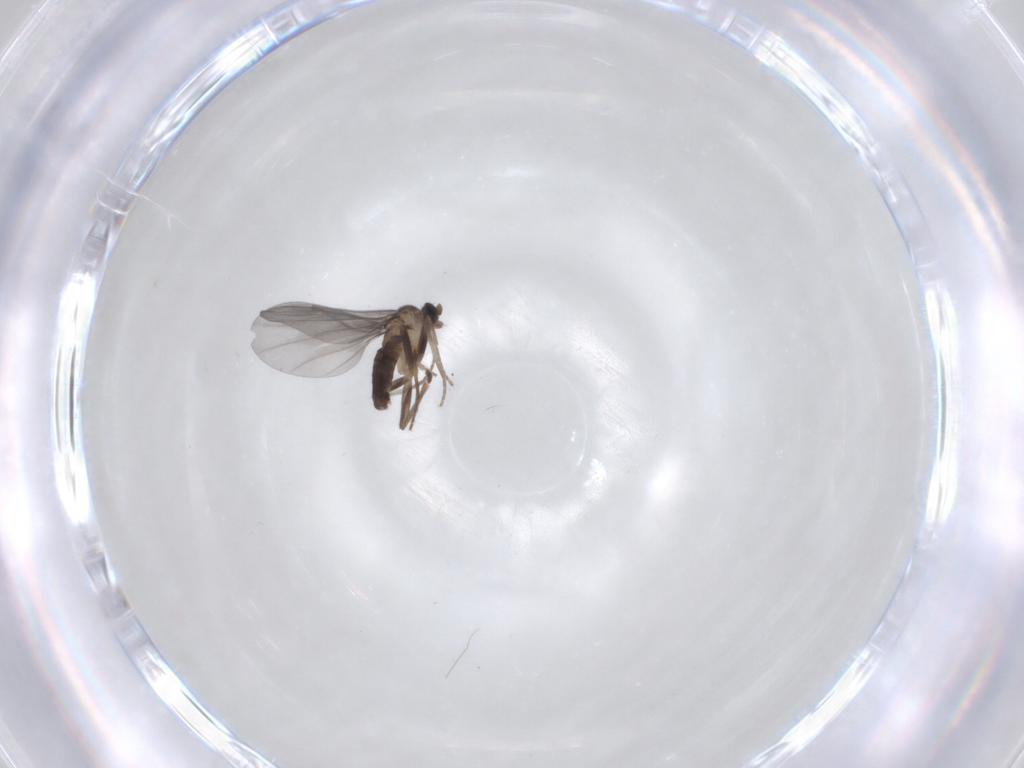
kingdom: Animalia
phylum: Arthropoda
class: Insecta
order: Diptera
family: Phoridae
